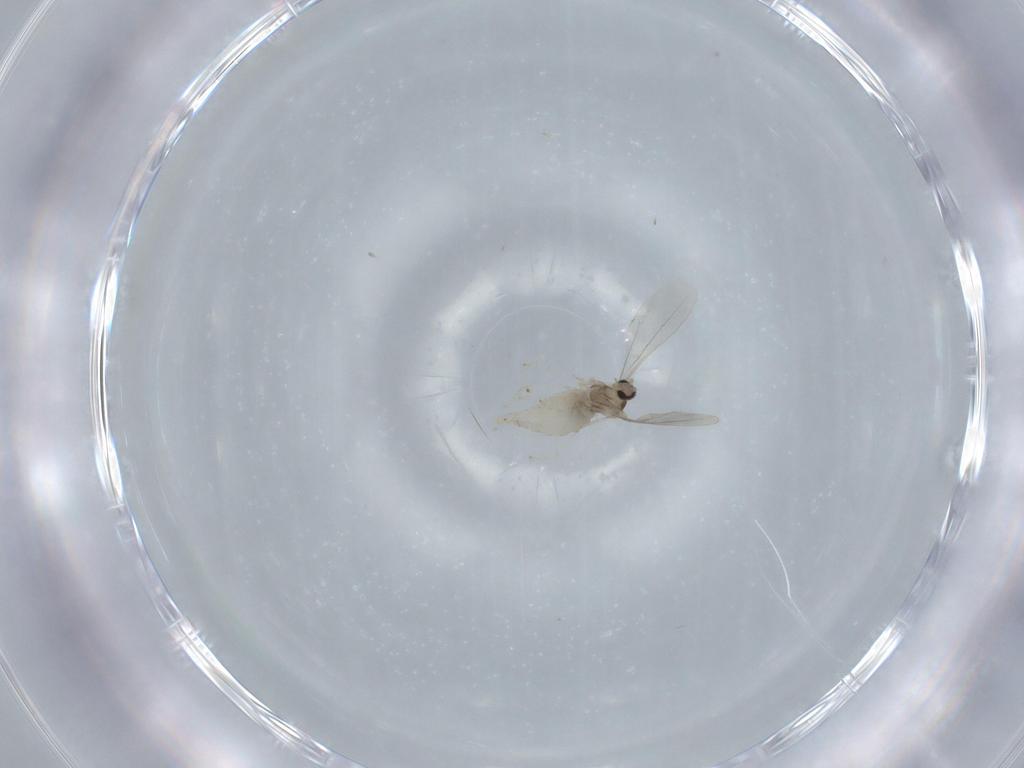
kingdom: Animalia
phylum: Arthropoda
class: Insecta
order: Diptera
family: Cecidomyiidae
